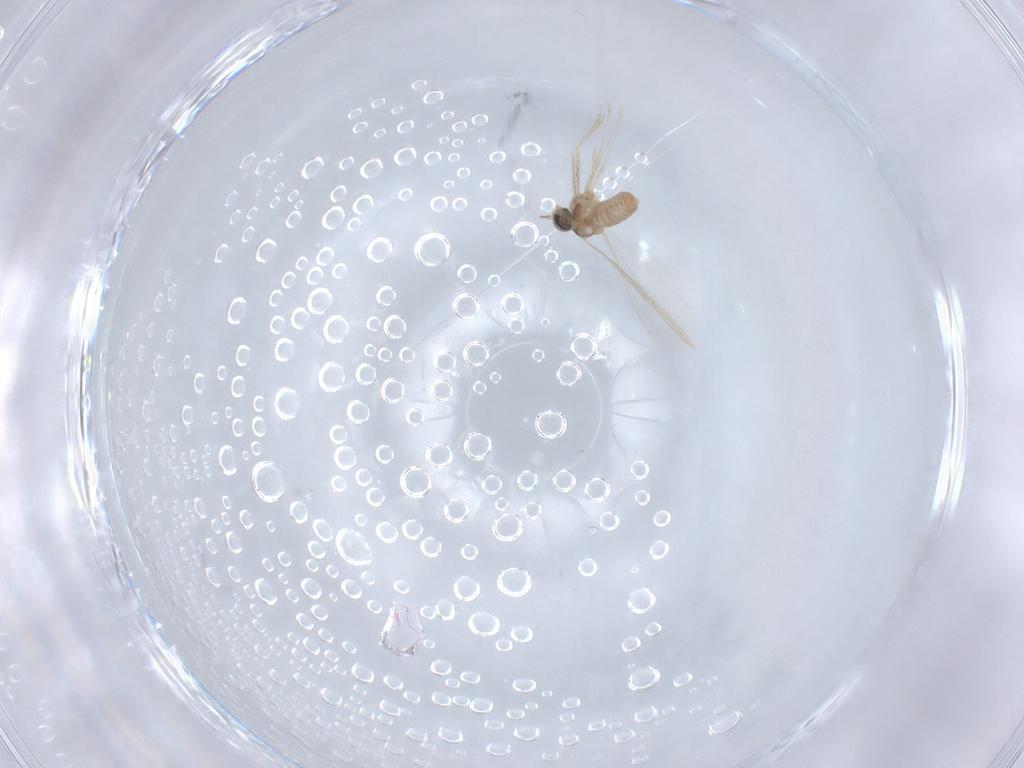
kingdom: Animalia
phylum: Arthropoda
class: Insecta
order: Diptera
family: Cecidomyiidae
